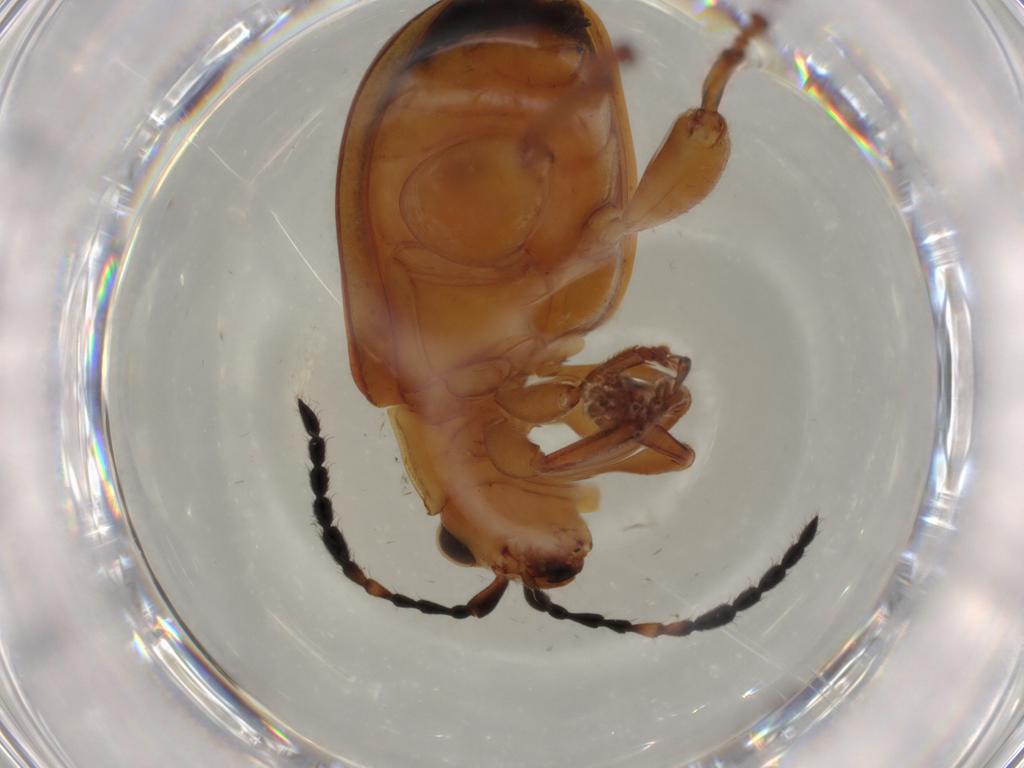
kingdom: Animalia
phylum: Arthropoda
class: Insecta
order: Coleoptera
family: Chrysomelidae
